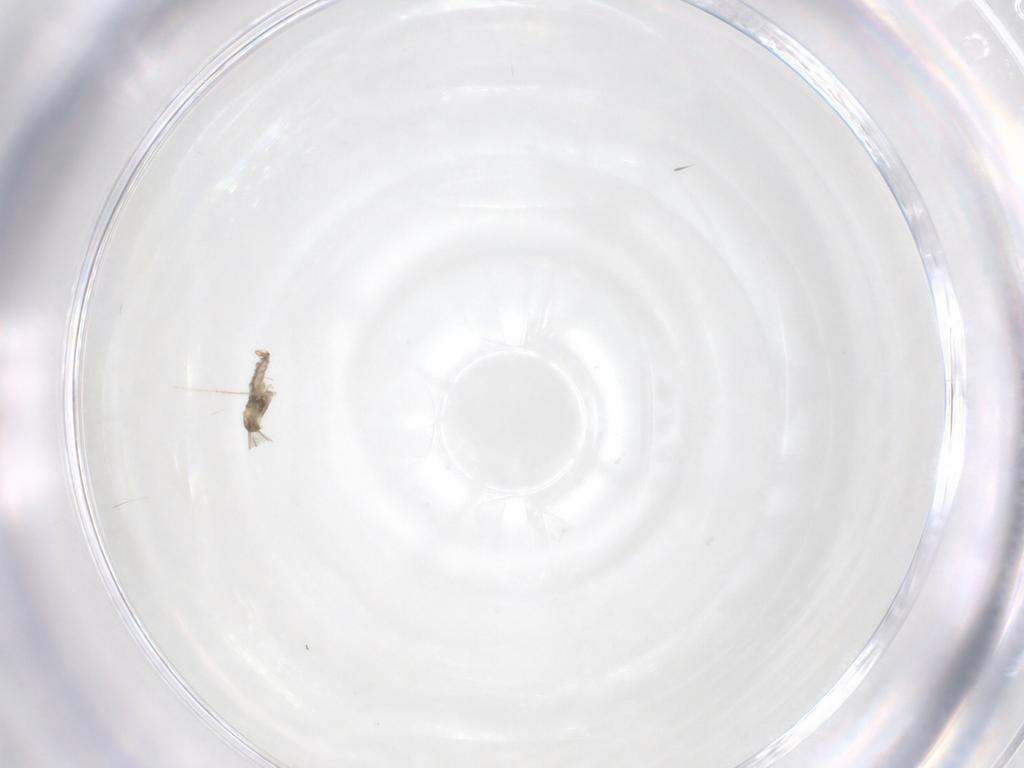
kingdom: Animalia
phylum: Arthropoda
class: Insecta
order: Diptera
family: Cecidomyiidae
